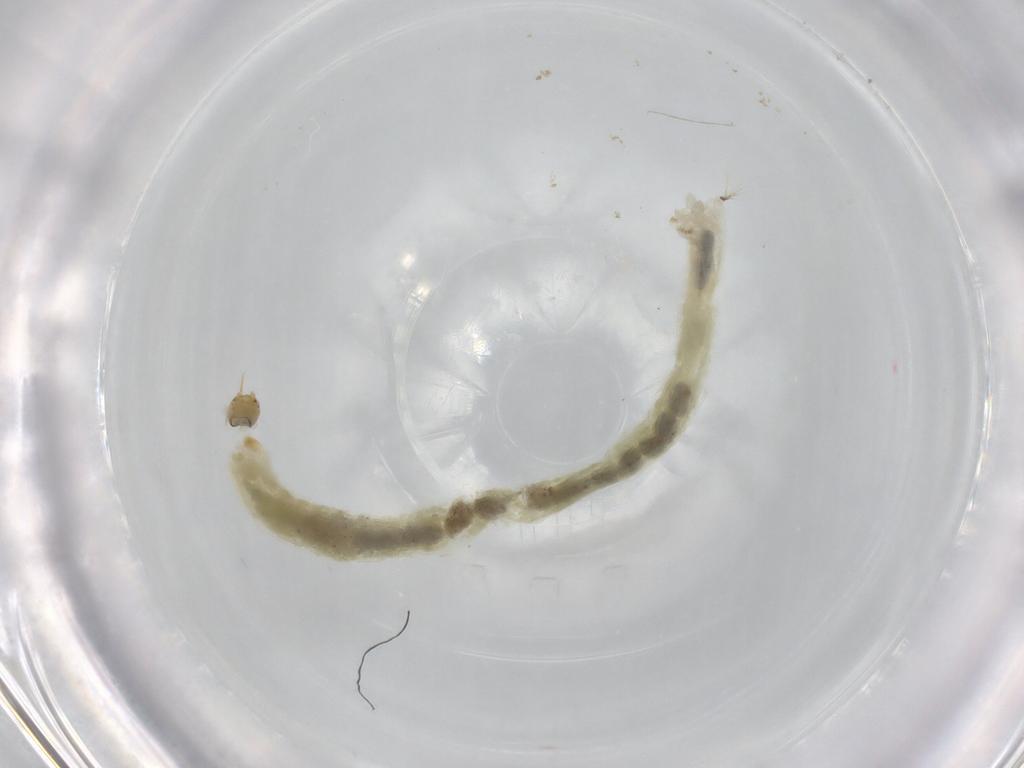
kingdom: Animalia
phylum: Arthropoda
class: Insecta
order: Diptera
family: Chironomidae
